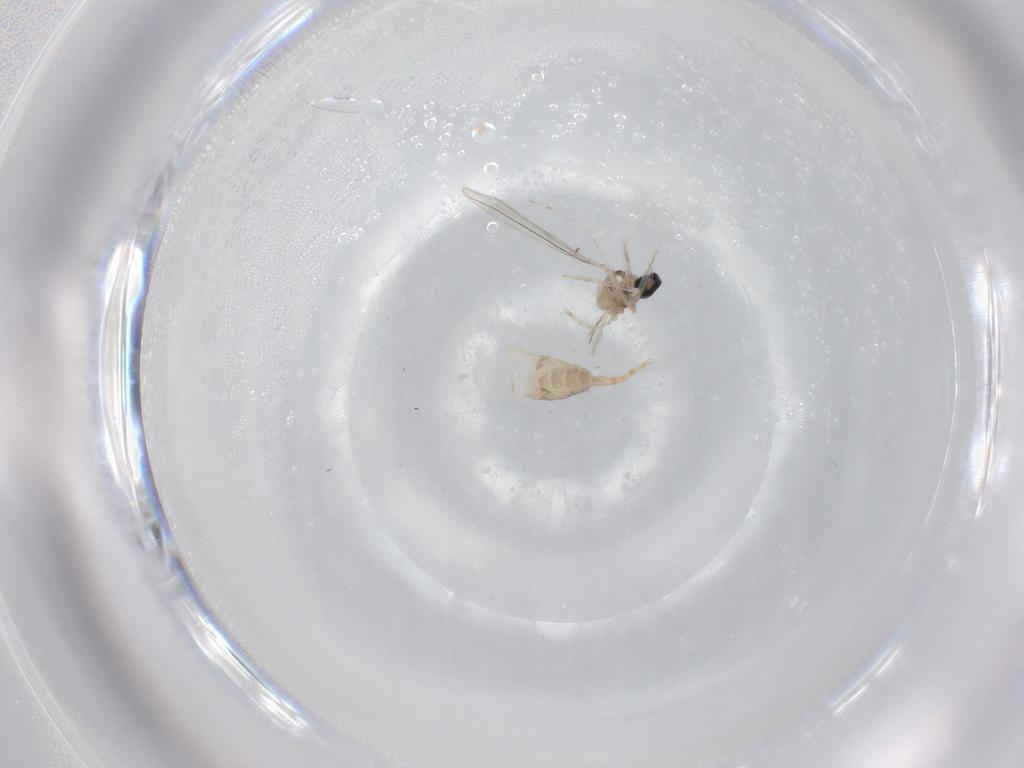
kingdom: Animalia
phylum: Arthropoda
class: Insecta
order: Diptera
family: Cecidomyiidae
